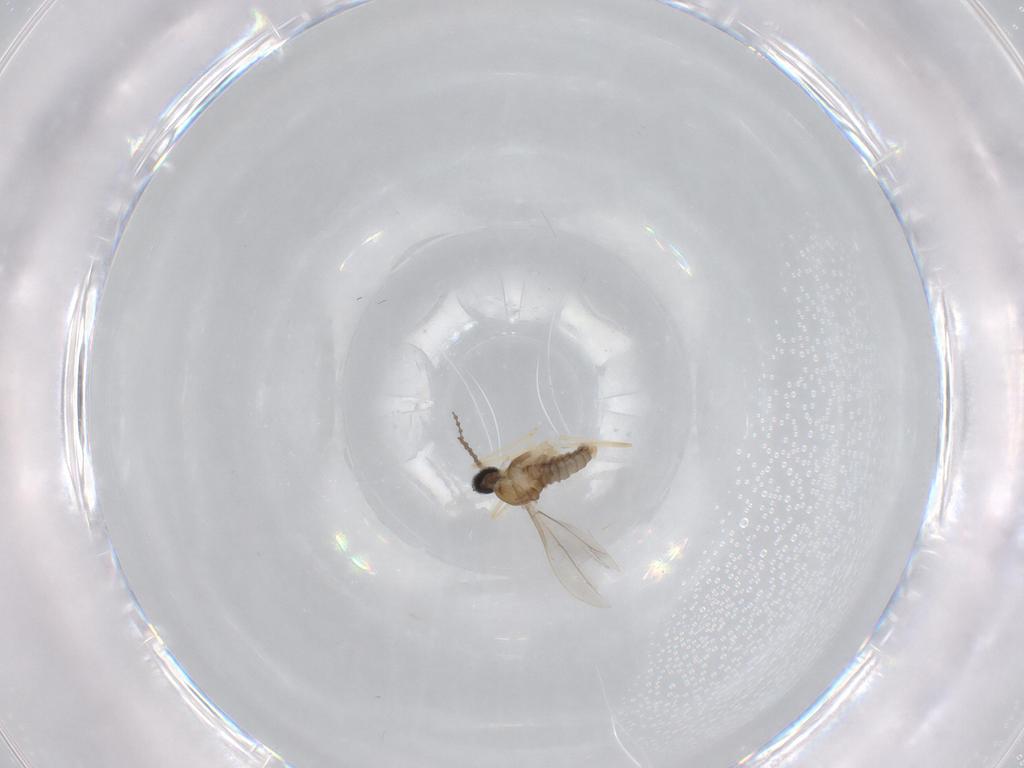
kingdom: Animalia
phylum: Arthropoda
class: Insecta
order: Diptera
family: Cecidomyiidae
